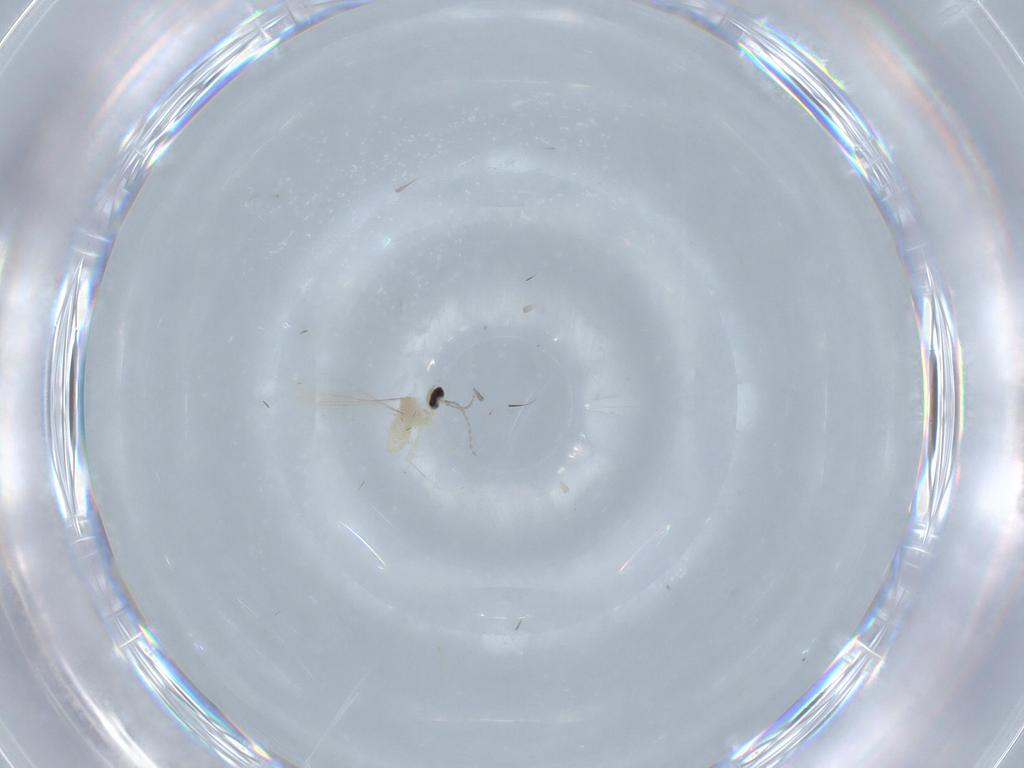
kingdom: Animalia
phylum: Arthropoda
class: Insecta
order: Diptera
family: Cecidomyiidae
